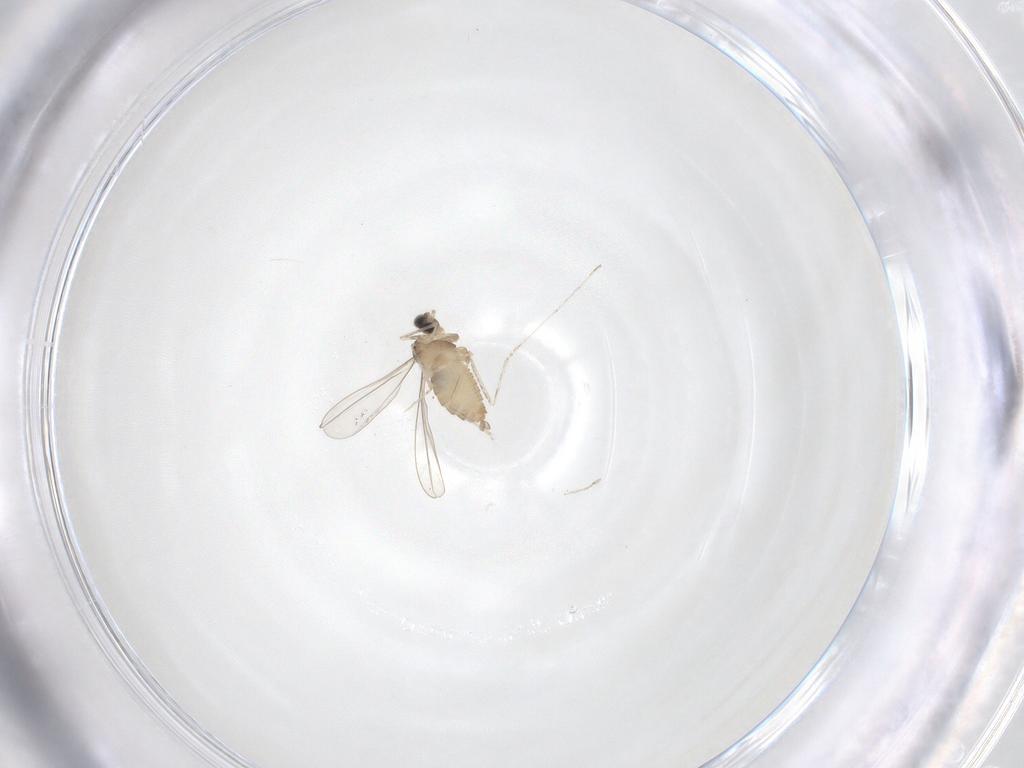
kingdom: Animalia
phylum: Arthropoda
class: Insecta
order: Diptera
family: Cecidomyiidae
